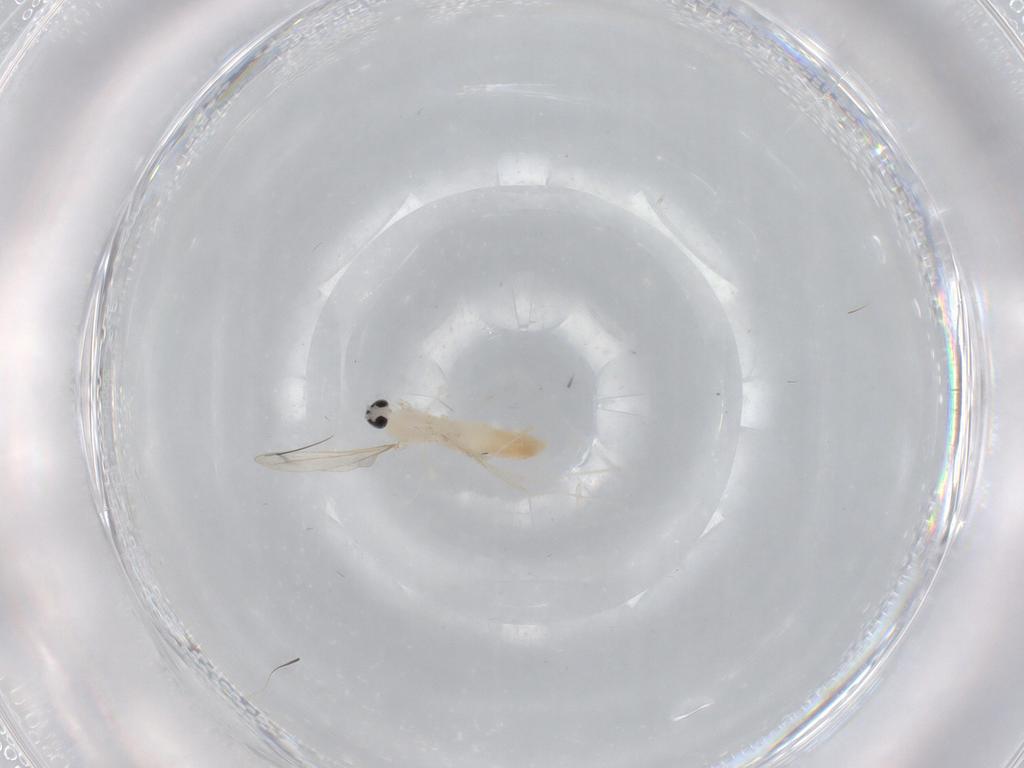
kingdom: Animalia
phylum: Arthropoda
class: Insecta
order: Diptera
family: Cecidomyiidae
